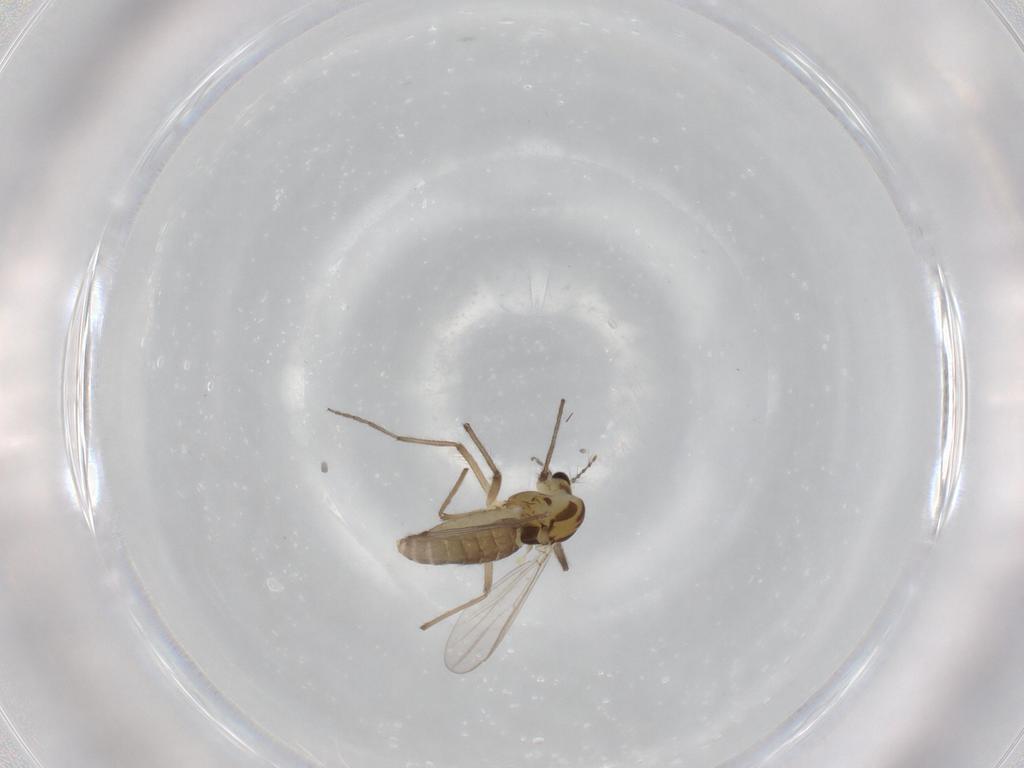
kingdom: Animalia
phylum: Arthropoda
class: Insecta
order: Diptera
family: Chironomidae
